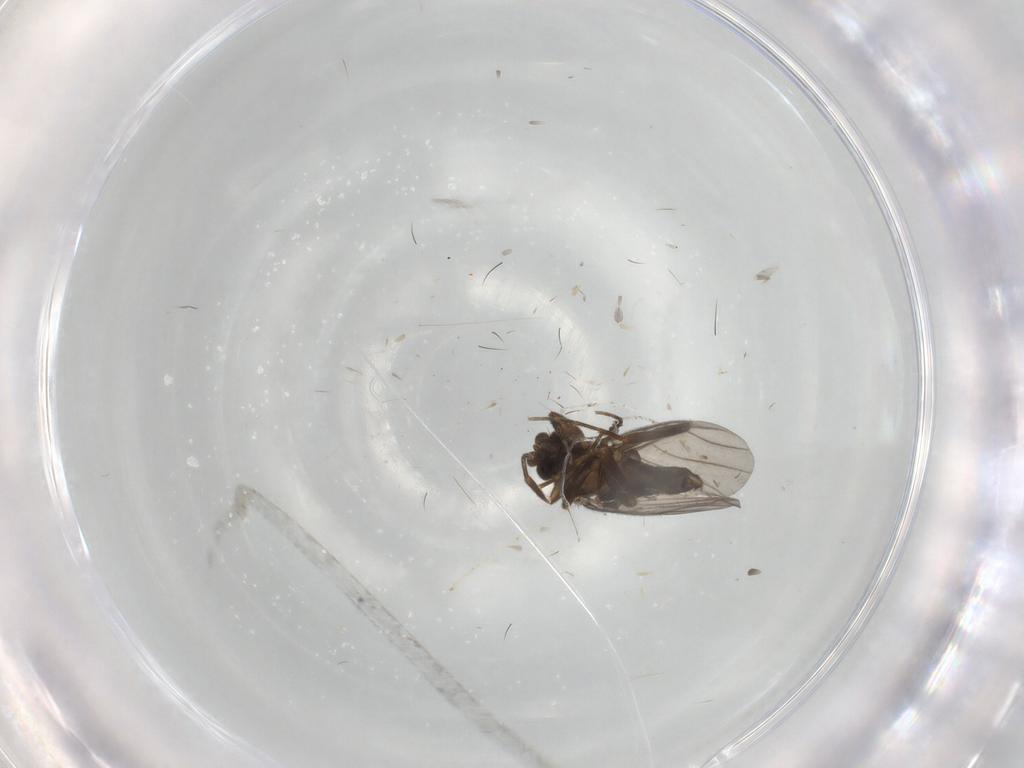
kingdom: Animalia
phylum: Arthropoda
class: Insecta
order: Diptera
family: Cecidomyiidae
